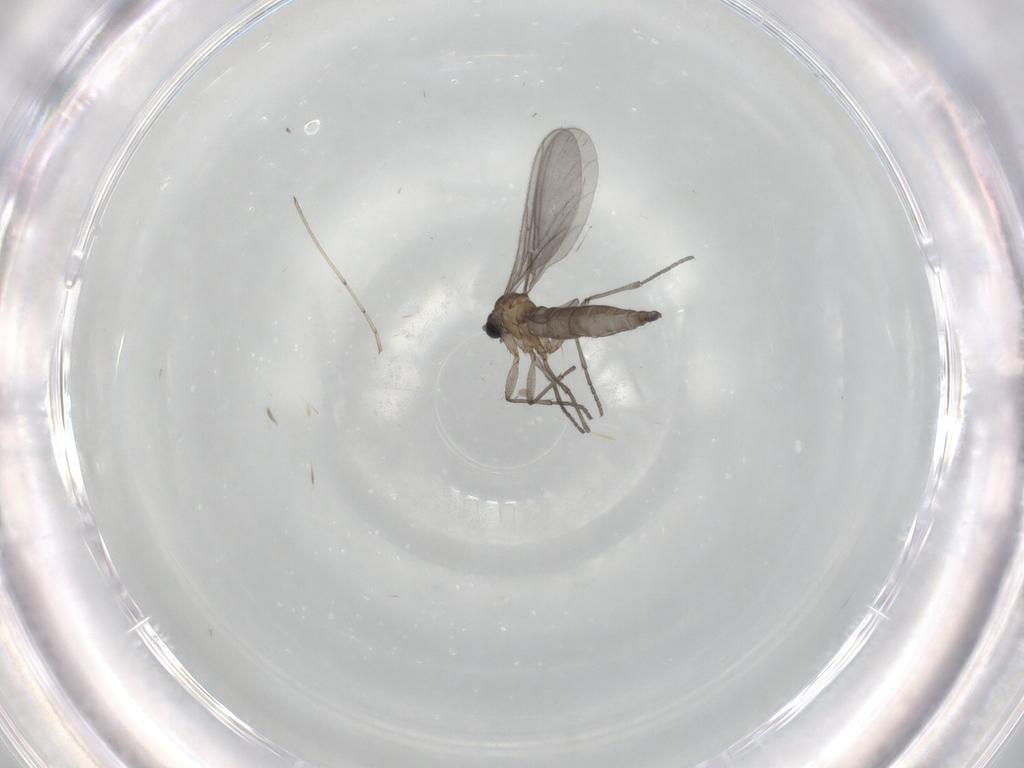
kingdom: Animalia
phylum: Arthropoda
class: Insecta
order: Diptera
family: Sciaridae
